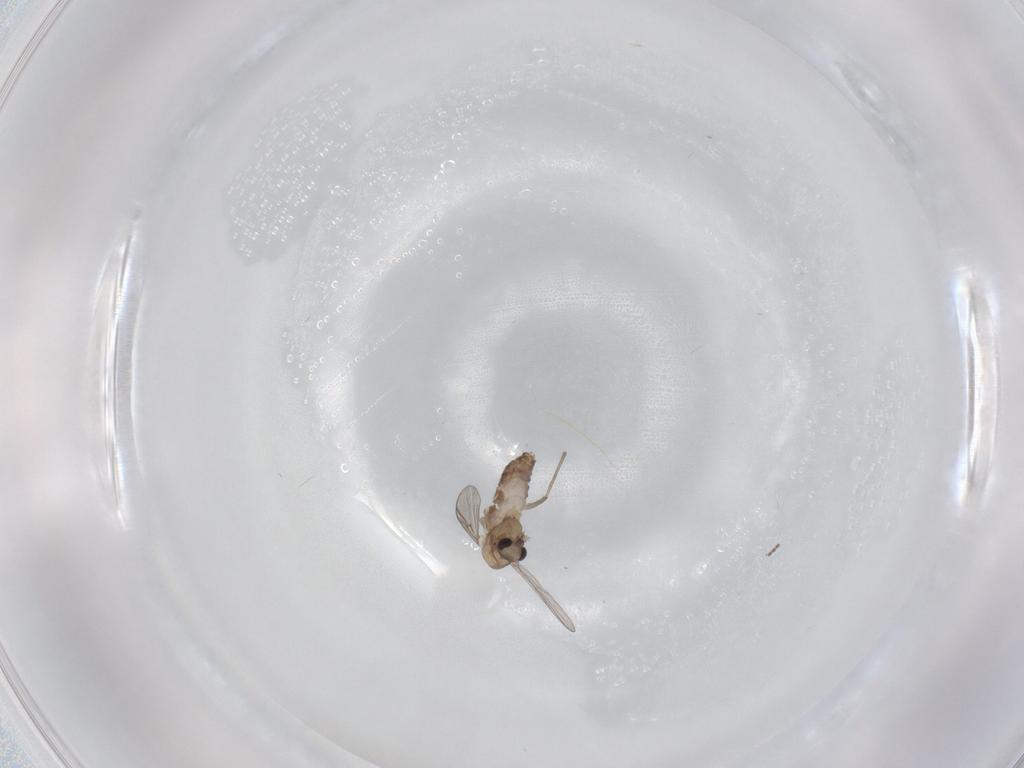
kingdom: Animalia
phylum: Arthropoda
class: Insecta
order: Diptera
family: Chironomidae
